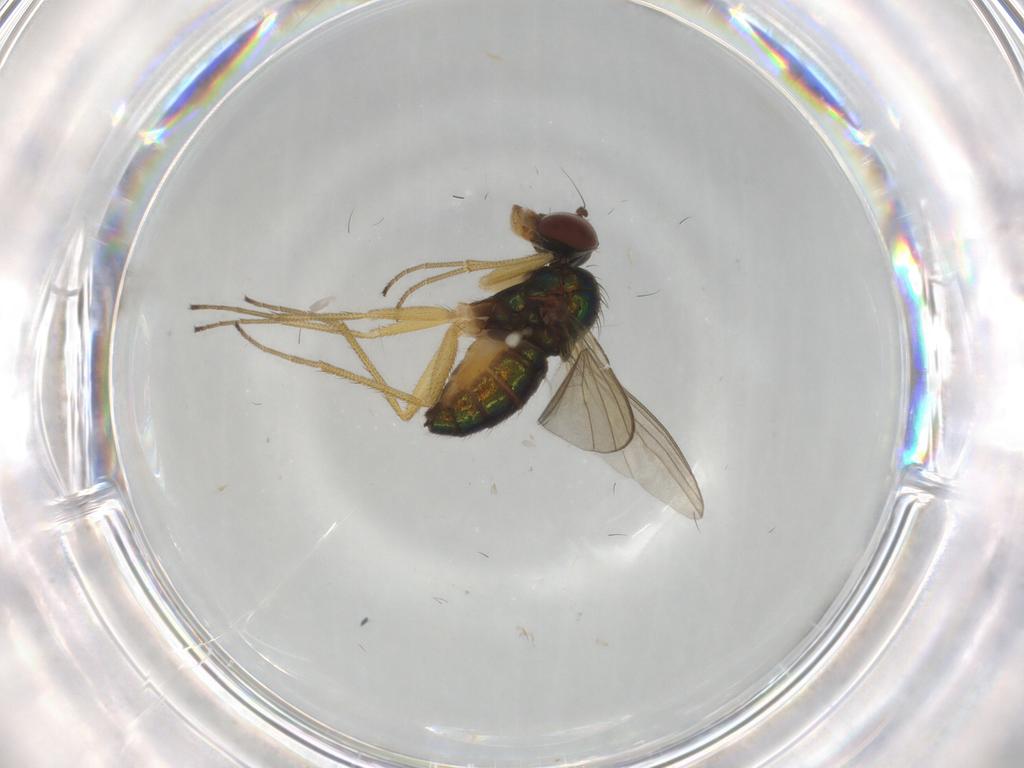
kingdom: Animalia
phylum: Arthropoda
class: Insecta
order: Diptera
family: Dolichopodidae
